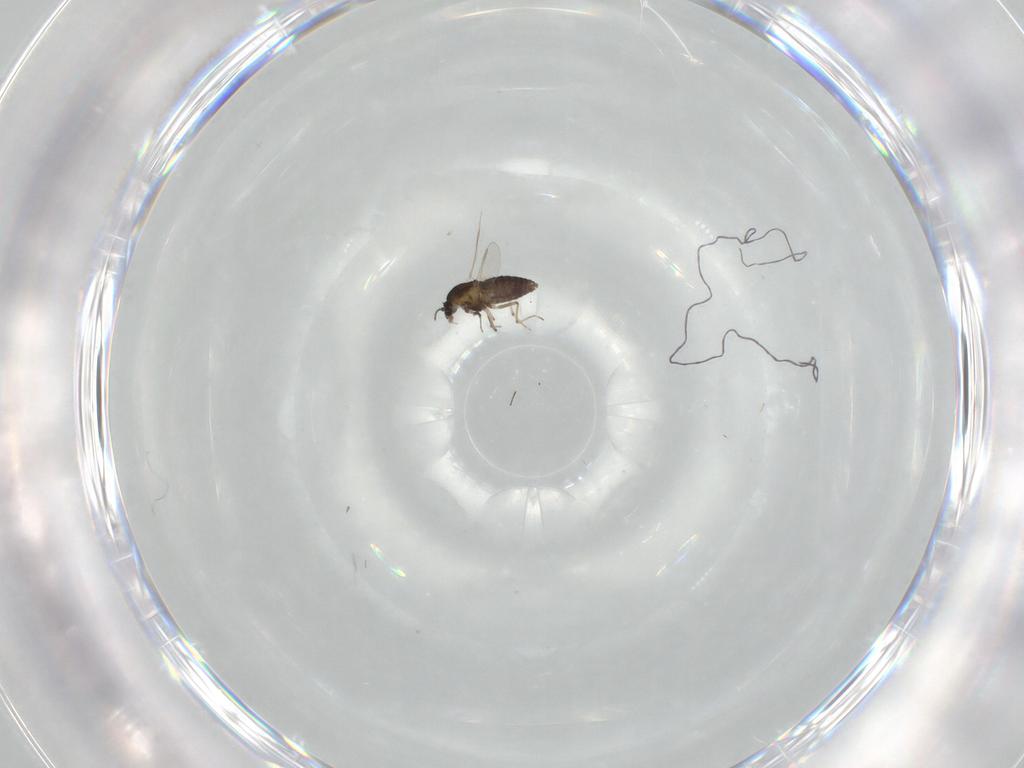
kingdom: Animalia
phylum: Arthropoda
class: Insecta
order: Diptera
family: Chironomidae
